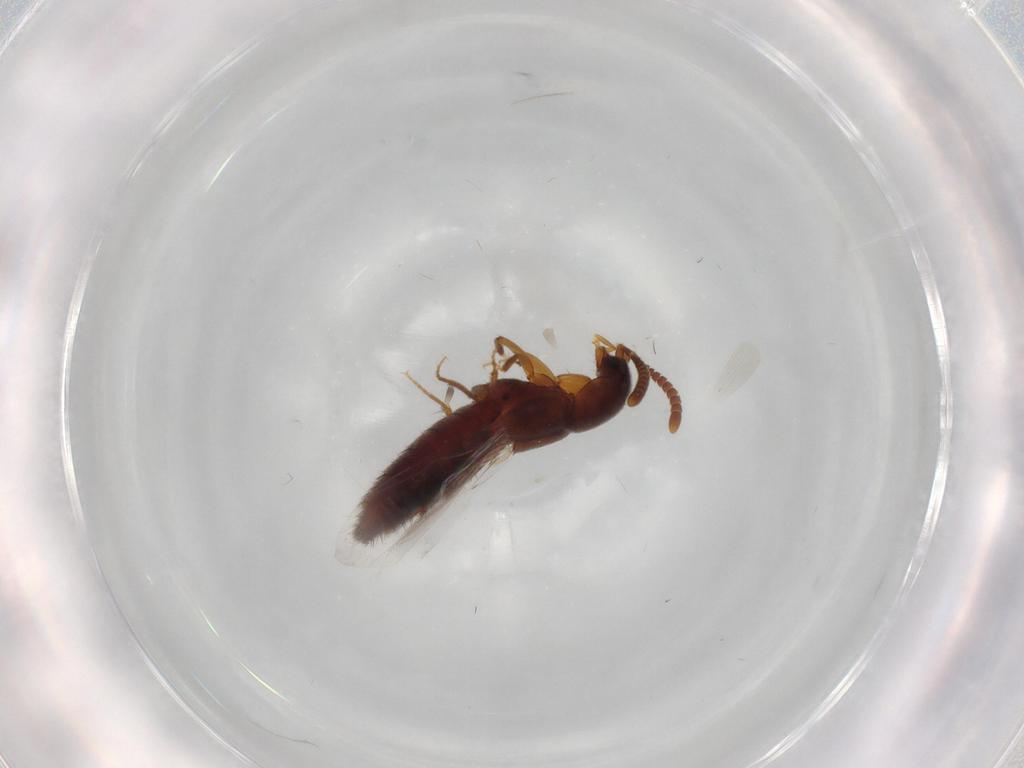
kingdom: Animalia
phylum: Arthropoda
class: Insecta
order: Coleoptera
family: Staphylinidae
